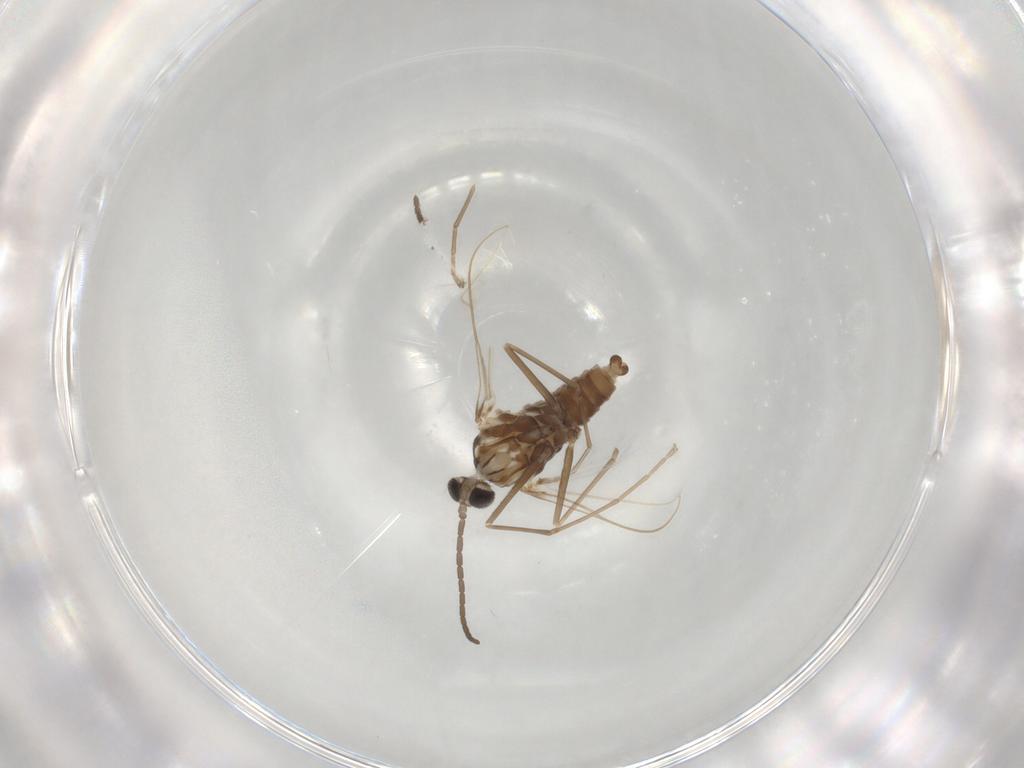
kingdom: Animalia
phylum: Arthropoda
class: Insecta
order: Diptera
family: Cecidomyiidae
